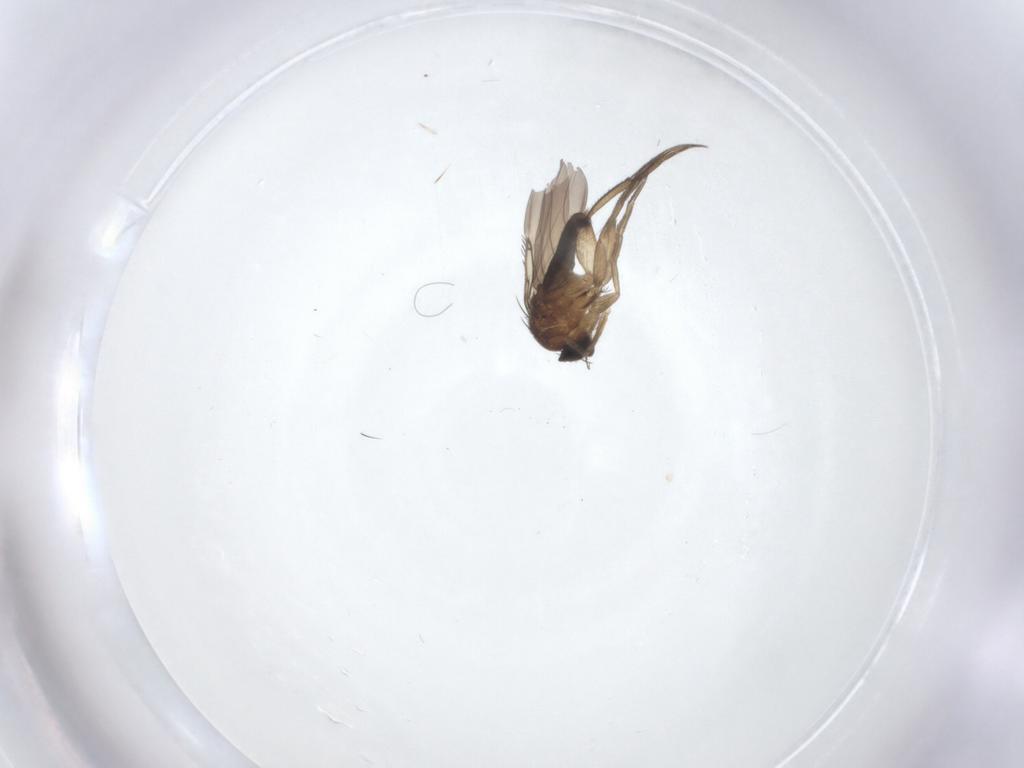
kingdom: Animalia
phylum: Arthropoda
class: Insecta
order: Diptera
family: Phoridae
